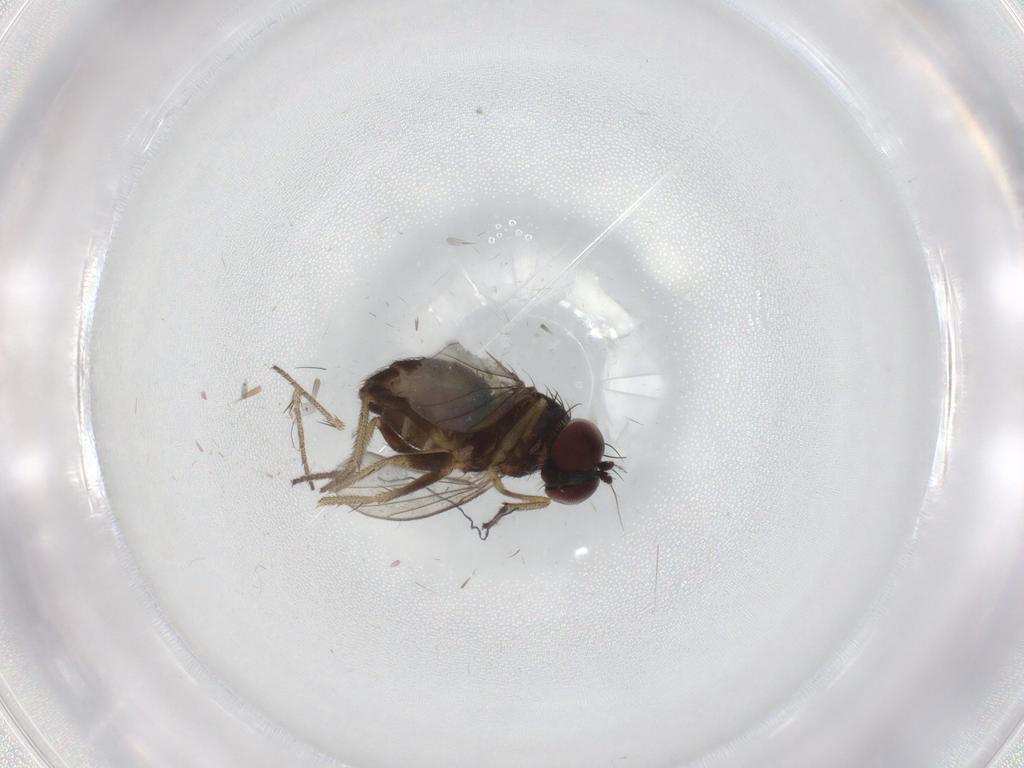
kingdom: Animalia
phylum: Arthropoda
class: Insecta
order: Diptera
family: Dolichopodidae
